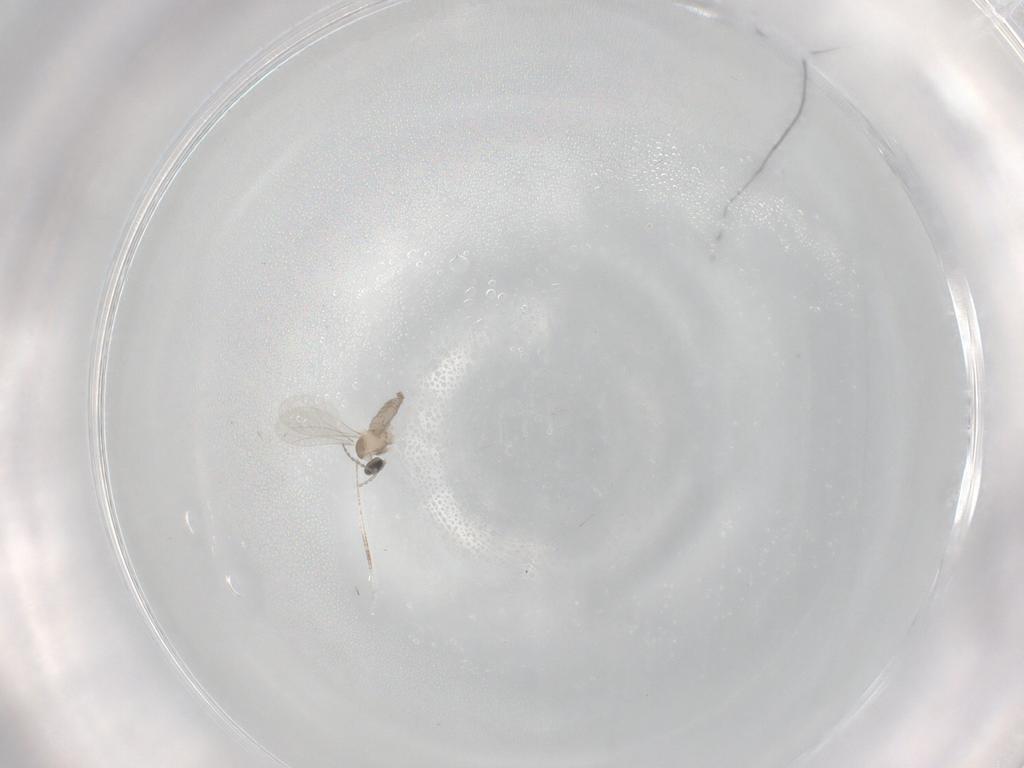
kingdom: Animalia
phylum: Arthropoda
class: Insecta
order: Diptera
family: Cecidomyiidae
